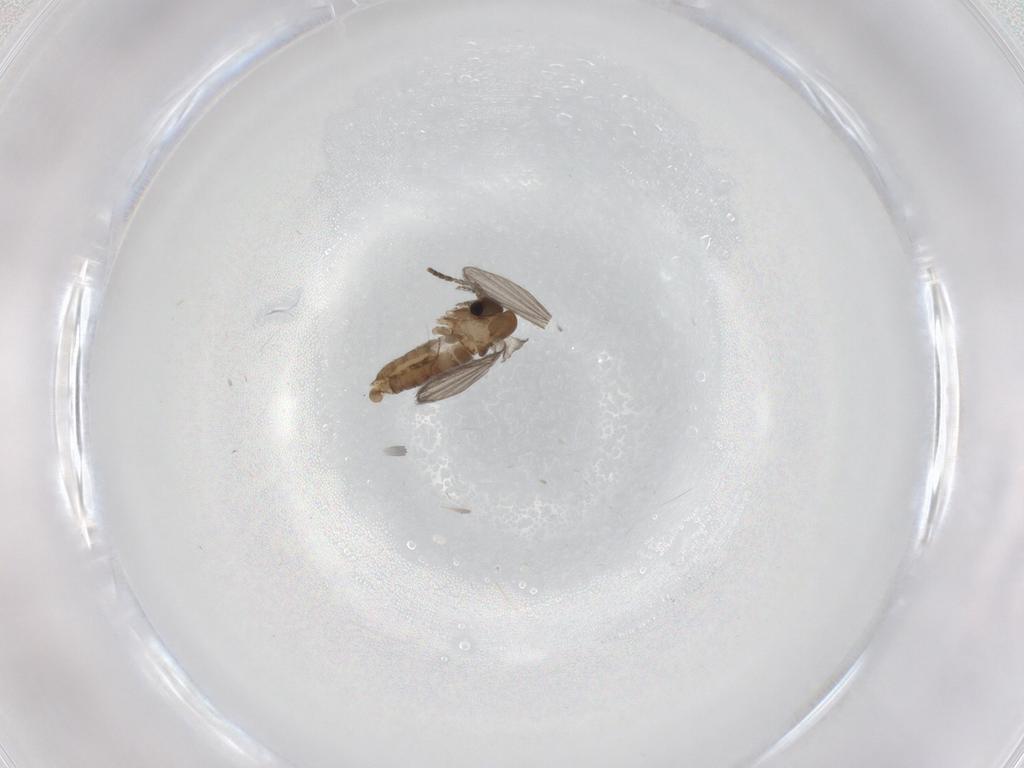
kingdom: Animalia
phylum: Arthropoda
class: Insecta
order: Diptera
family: Psychodidae
